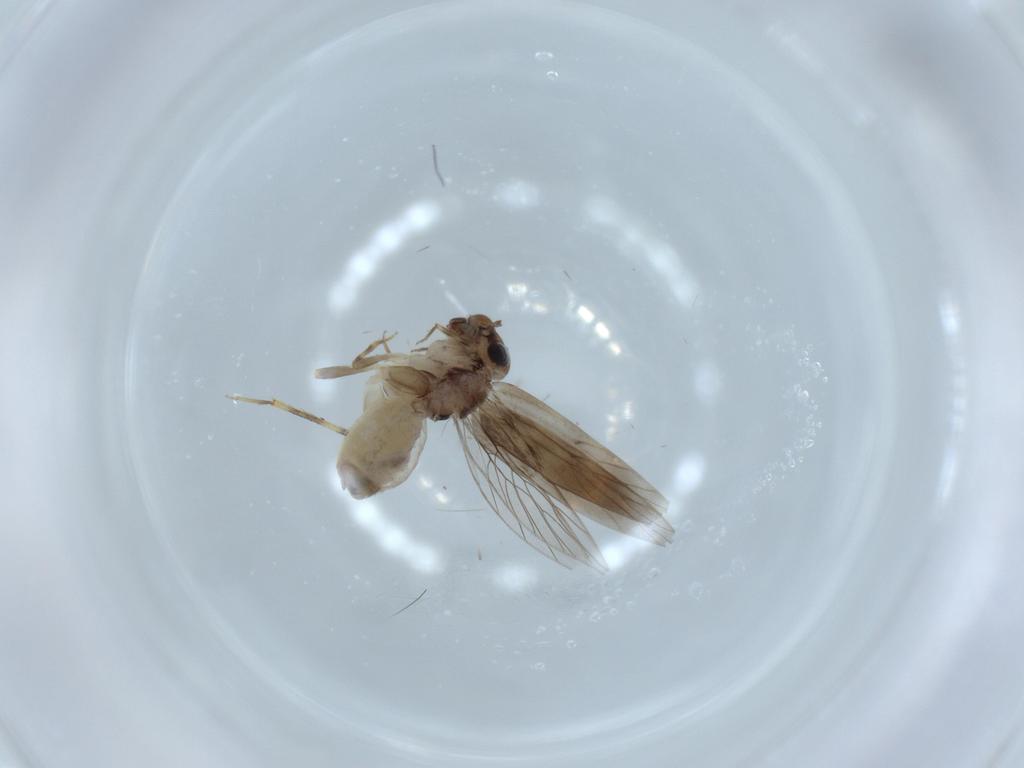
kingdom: Animalia
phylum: Arthropoda
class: Insecta
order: Psocodea
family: Lepidopsocidae
